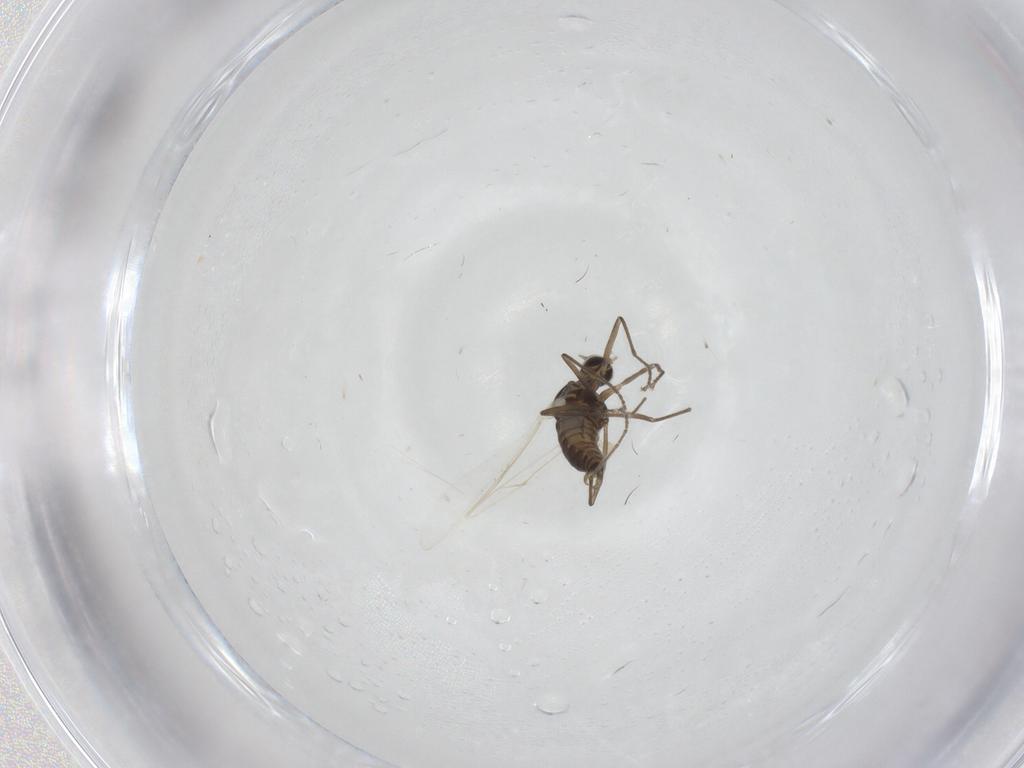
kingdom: Animalia
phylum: Arthropoda
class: Insecta
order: Diptera
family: Cecidomyiidae
